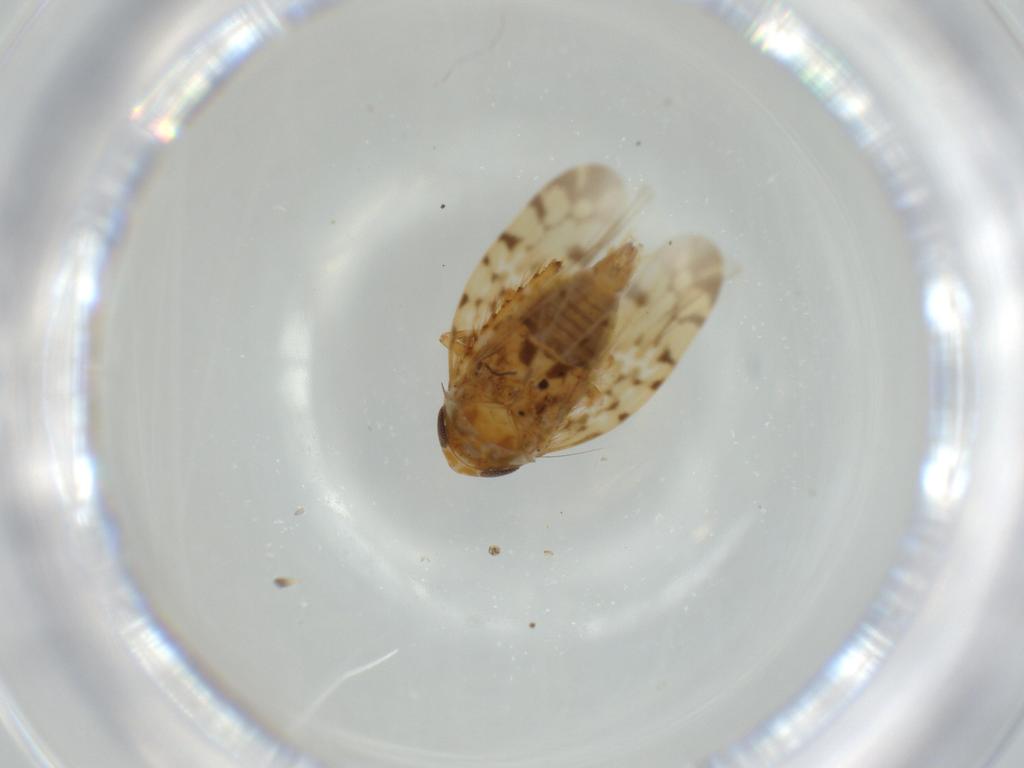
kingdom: Animalia
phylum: Arthropoda
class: Insecta
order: Hemiptera
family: Cicadellidae
